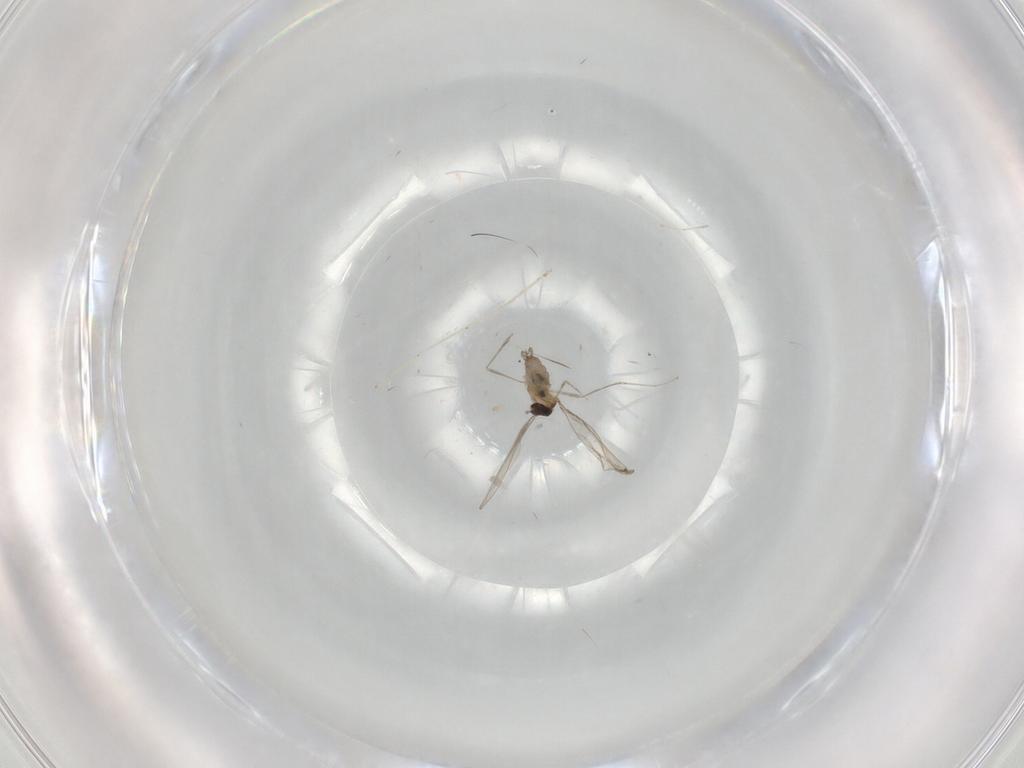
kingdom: Animalia
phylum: Arthropoda
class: Insecta
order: Diptera
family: Cecidomyiidae
